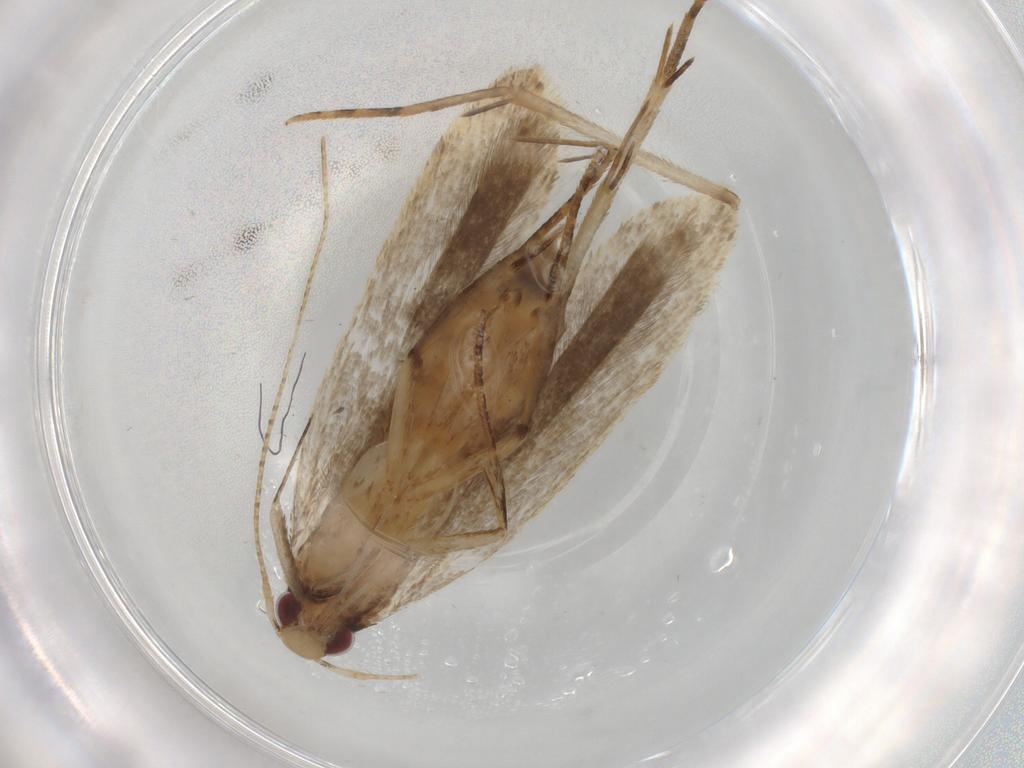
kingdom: Animalia
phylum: Arthropoda
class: Insecta
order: Lepidoptera
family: Gelechiidae
